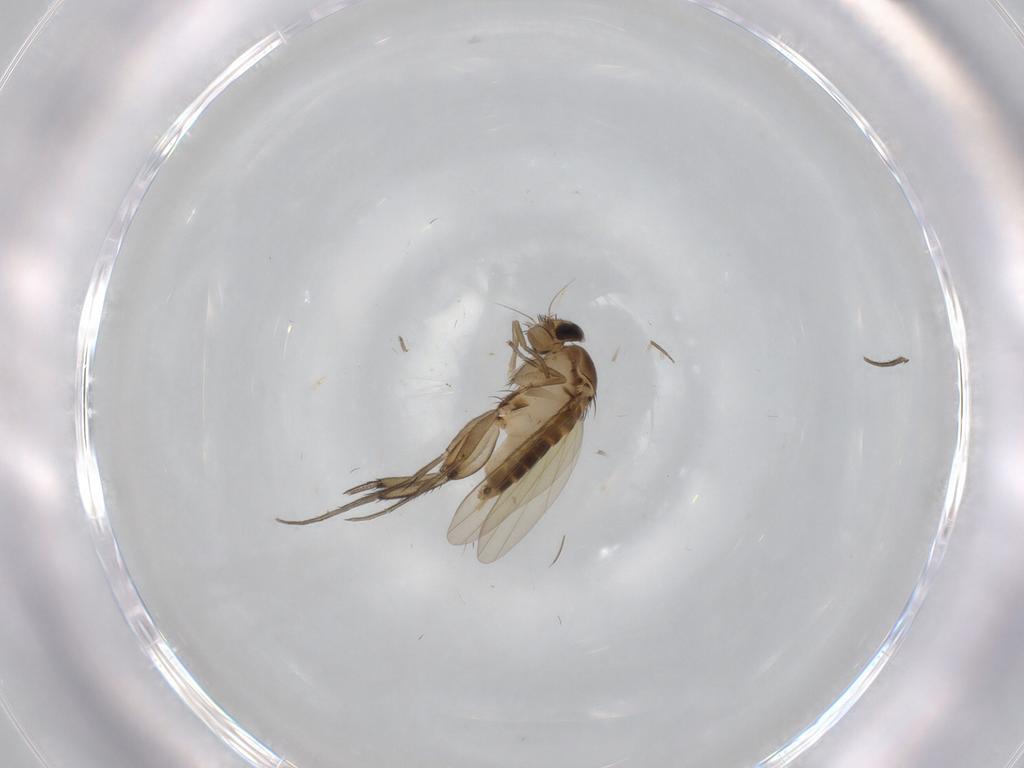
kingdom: Animalia
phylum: Arthropoda
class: Insecta
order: Diptera
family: Phoridae
